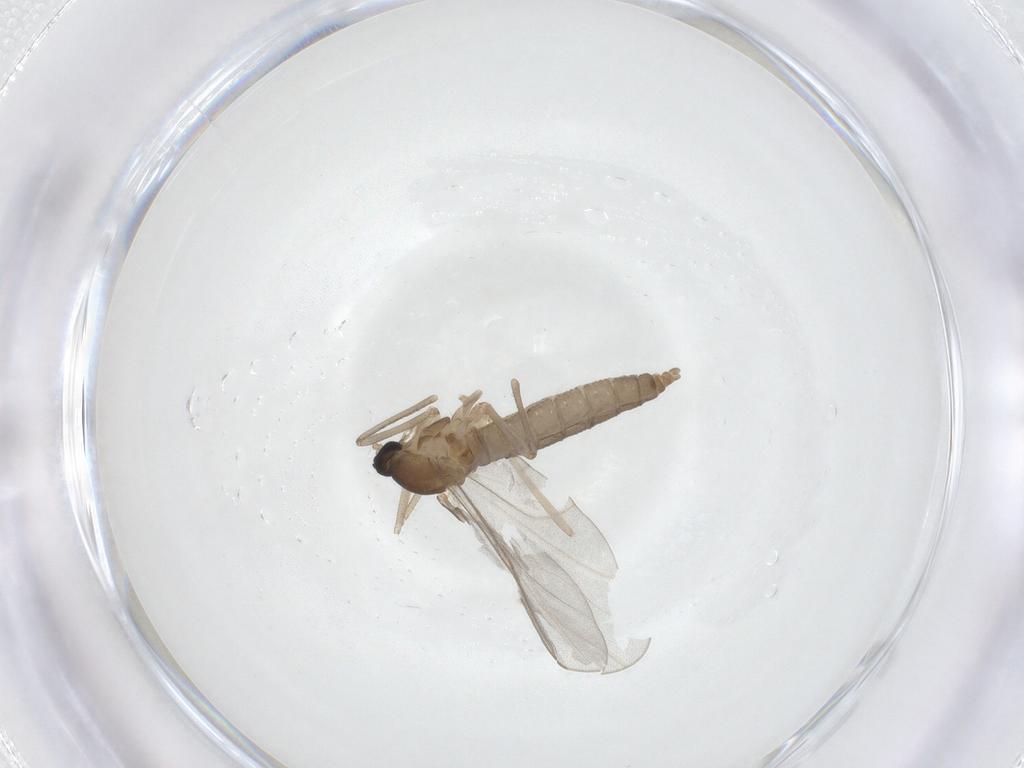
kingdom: Animalia
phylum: Arthropoda
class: Insecta
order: Diptera
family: Cecidomyiidae
